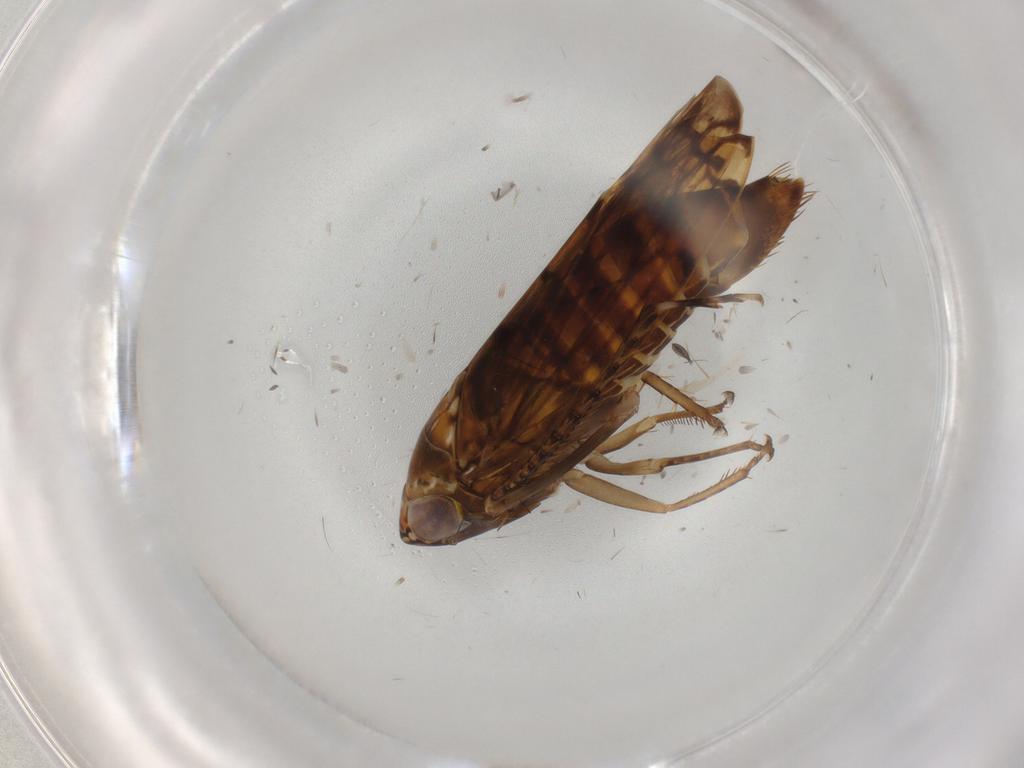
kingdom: Animalia
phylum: Arthropoda
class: Insecta
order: Hemiptera
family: Cicadellidae
